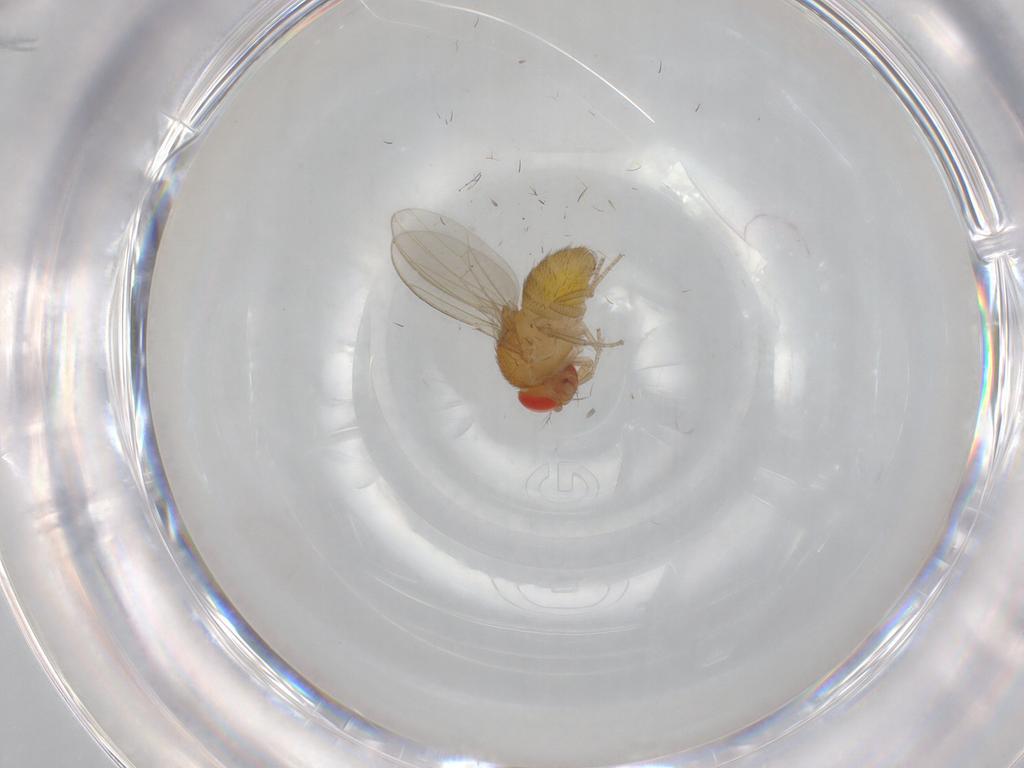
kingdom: Animalia
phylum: Arthropoda
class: Insecta
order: Diptera
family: Drosophilidae
